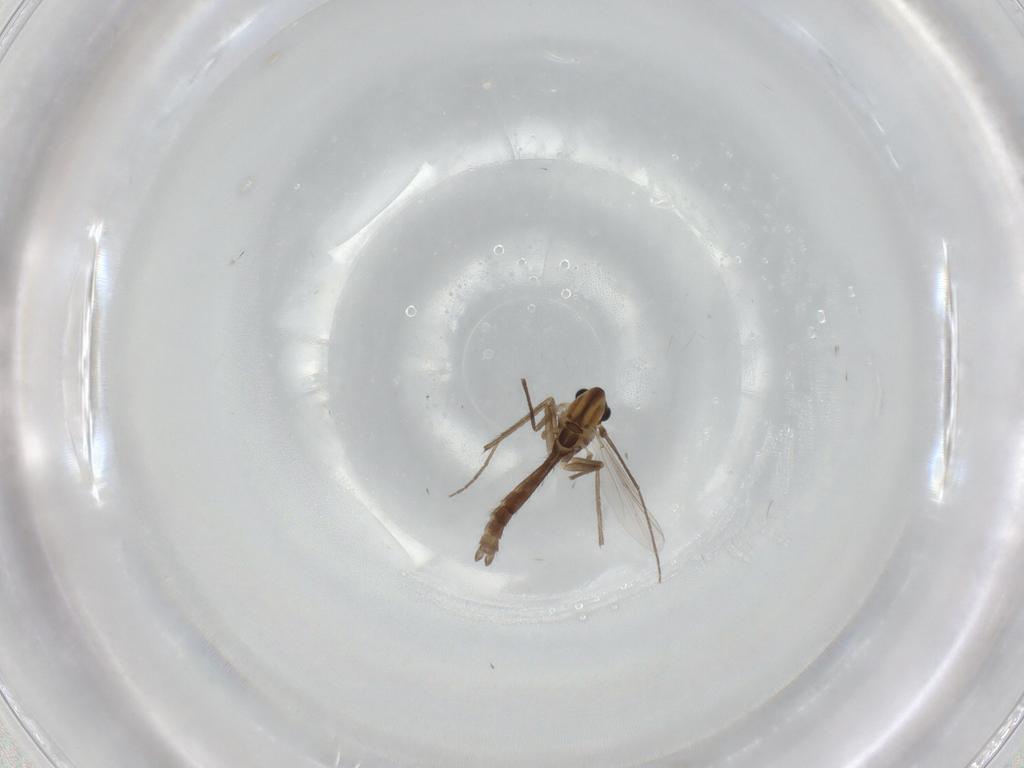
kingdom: Animalia
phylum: Arthropoda
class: Insecta
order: Diptera
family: Chironomidae
